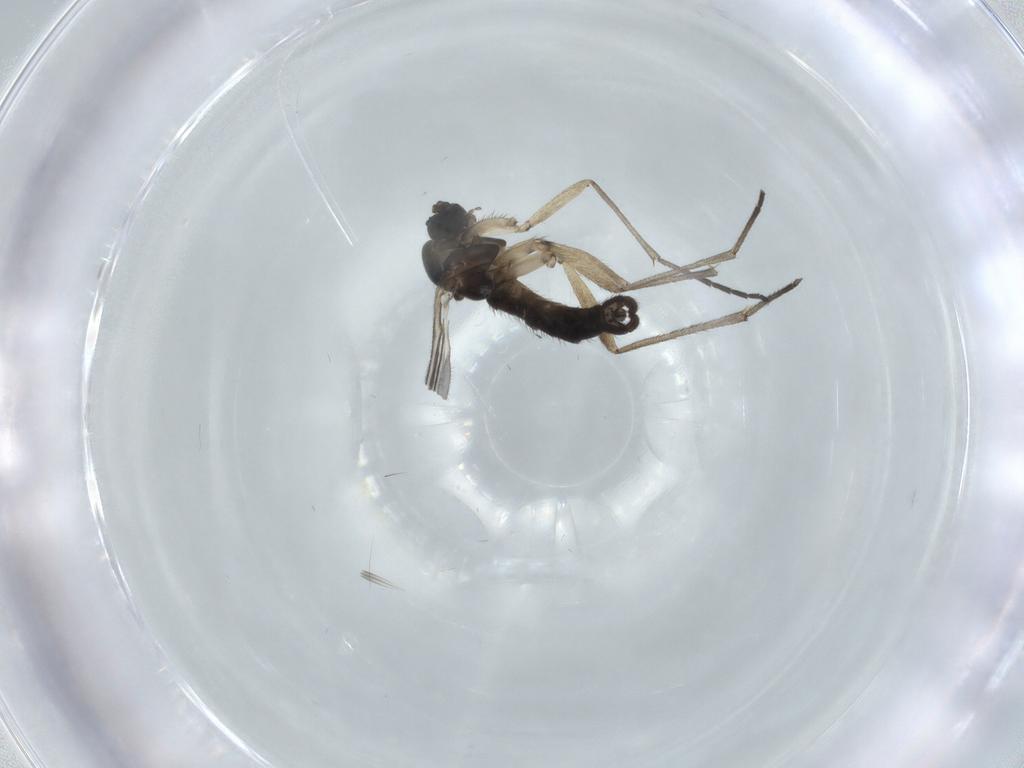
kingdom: Animalia
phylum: Arthropoda
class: Insecta
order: Diptera
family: Sciaridae
